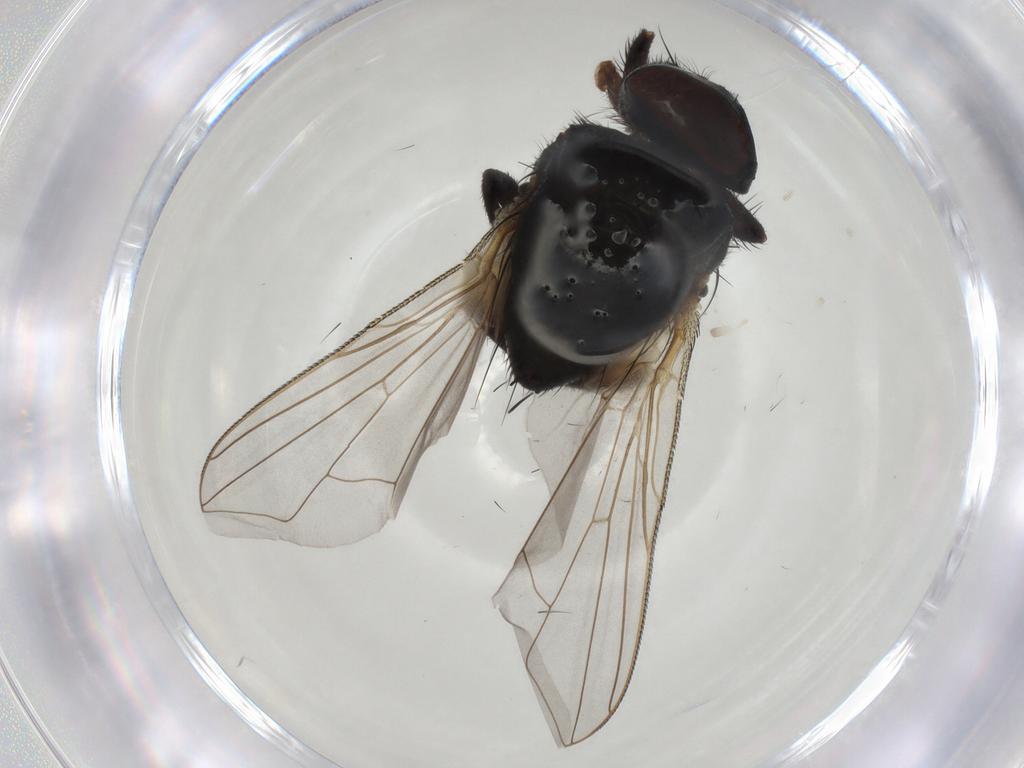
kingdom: Animalia
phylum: Arthropoda
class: Insecta
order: Diptera
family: Muscidae
